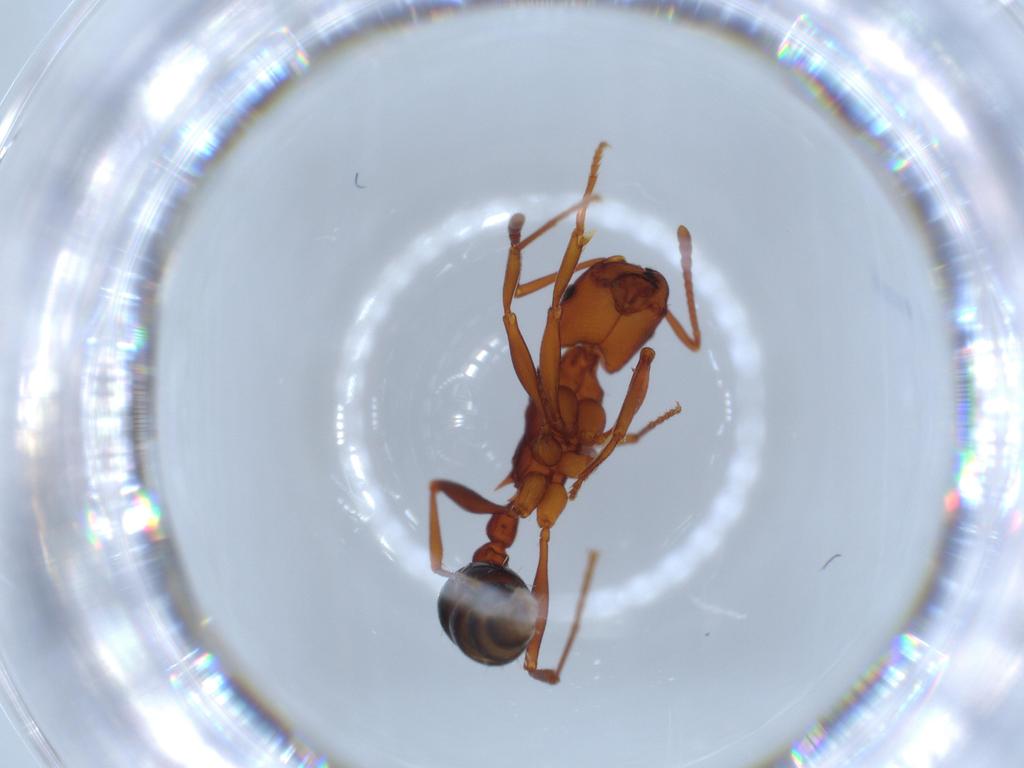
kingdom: Animalia
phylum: Arthropoda
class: Insecta
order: Hymenoptera
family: Formicidae
